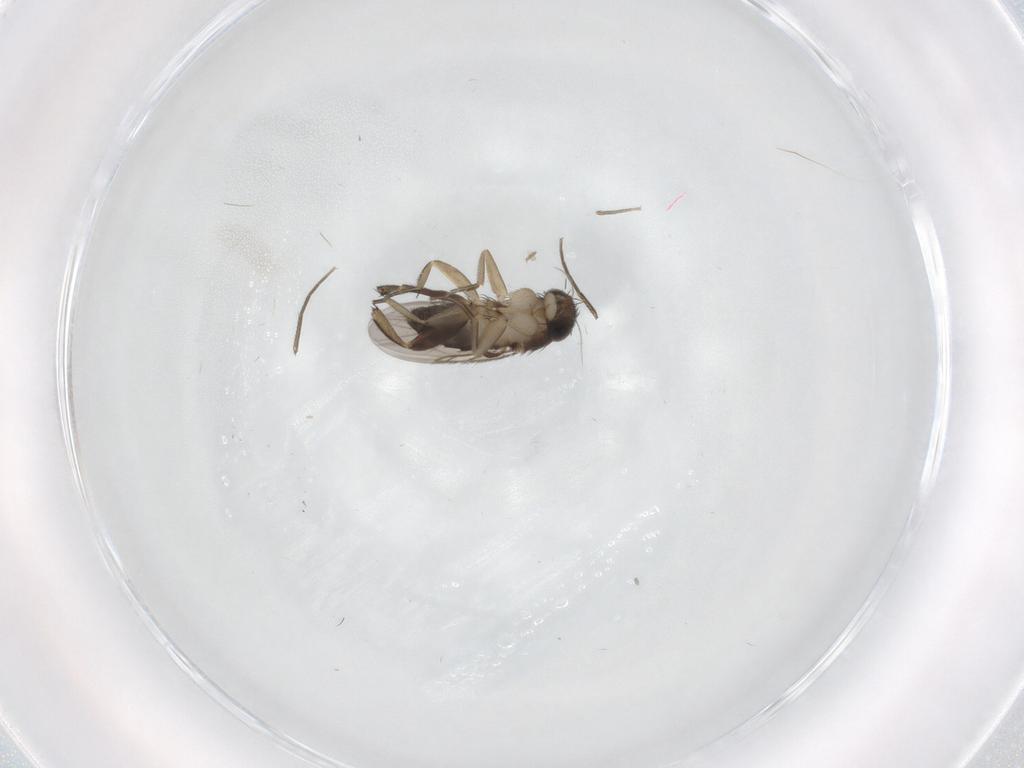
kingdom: Animalia
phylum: Arthropoda
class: Insecta
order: Diptera
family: Phoridae
